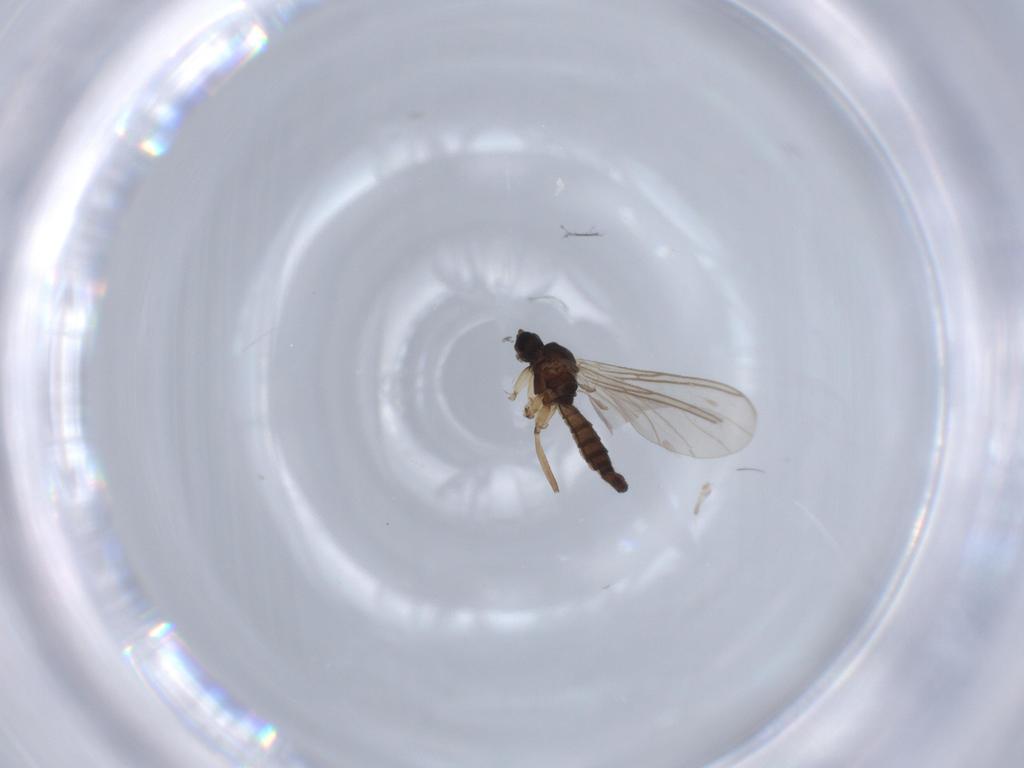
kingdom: Animalia
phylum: Arthropoda
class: Insecta
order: Diptera
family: Sciaridae
